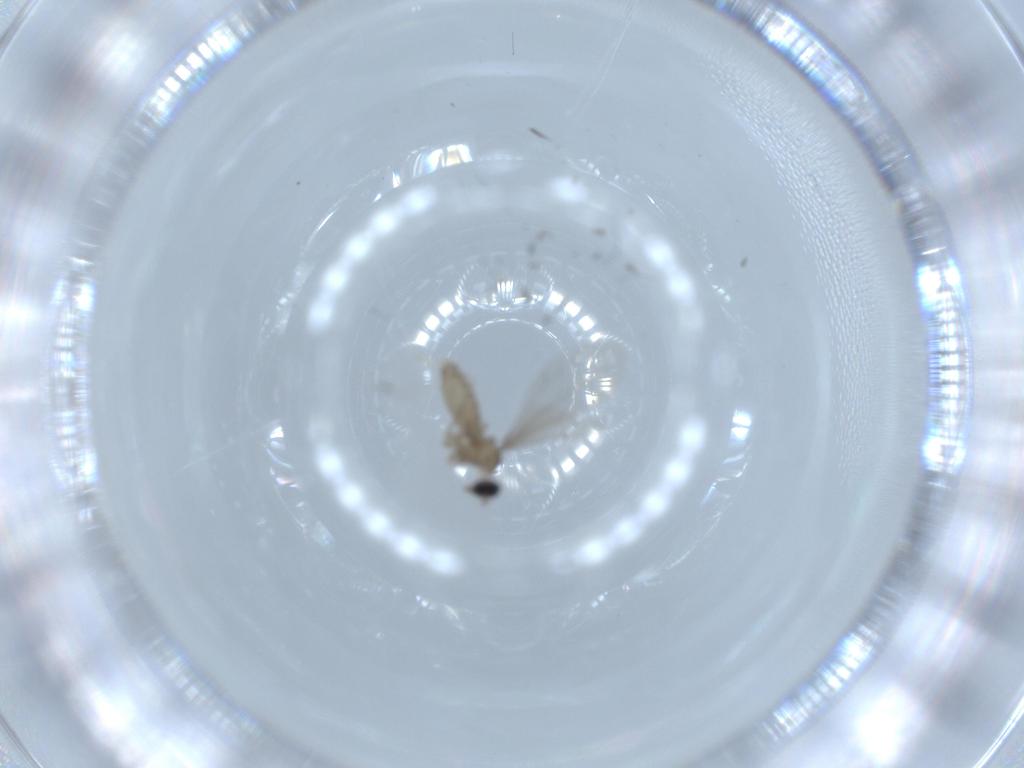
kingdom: Animalia
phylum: Arthropoda
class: Insecta
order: Diptera
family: Cecidomyiidae
